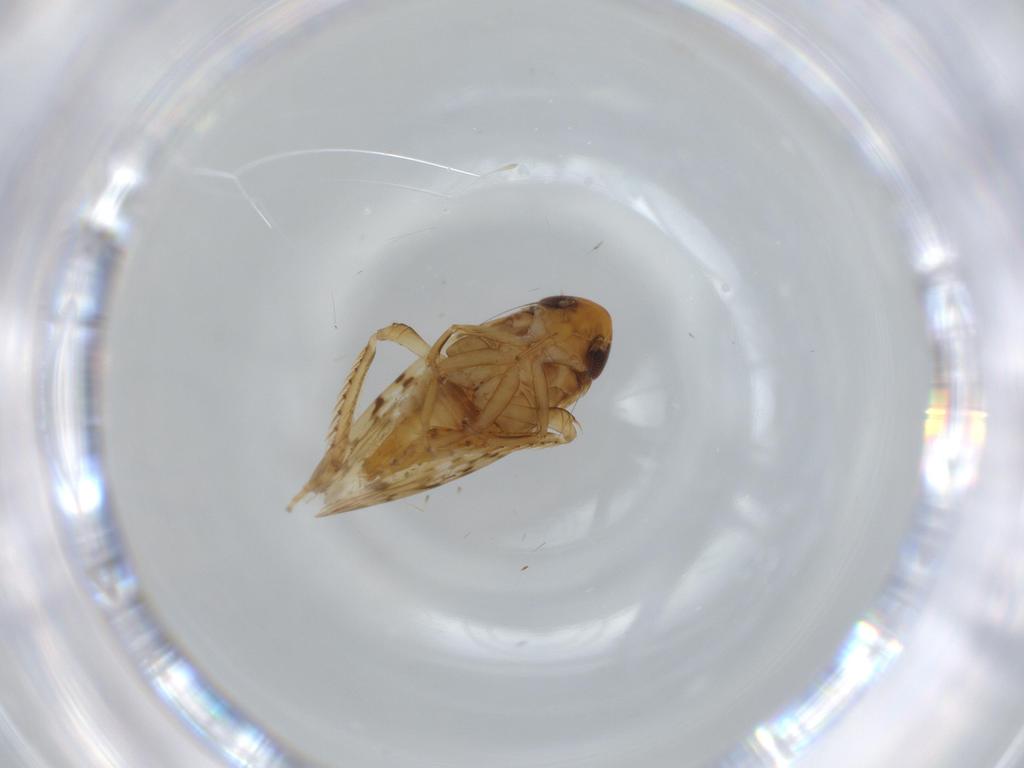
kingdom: Animalia
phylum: Arthropoda
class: Insecta
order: Hemiptera
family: Cicadellidae
